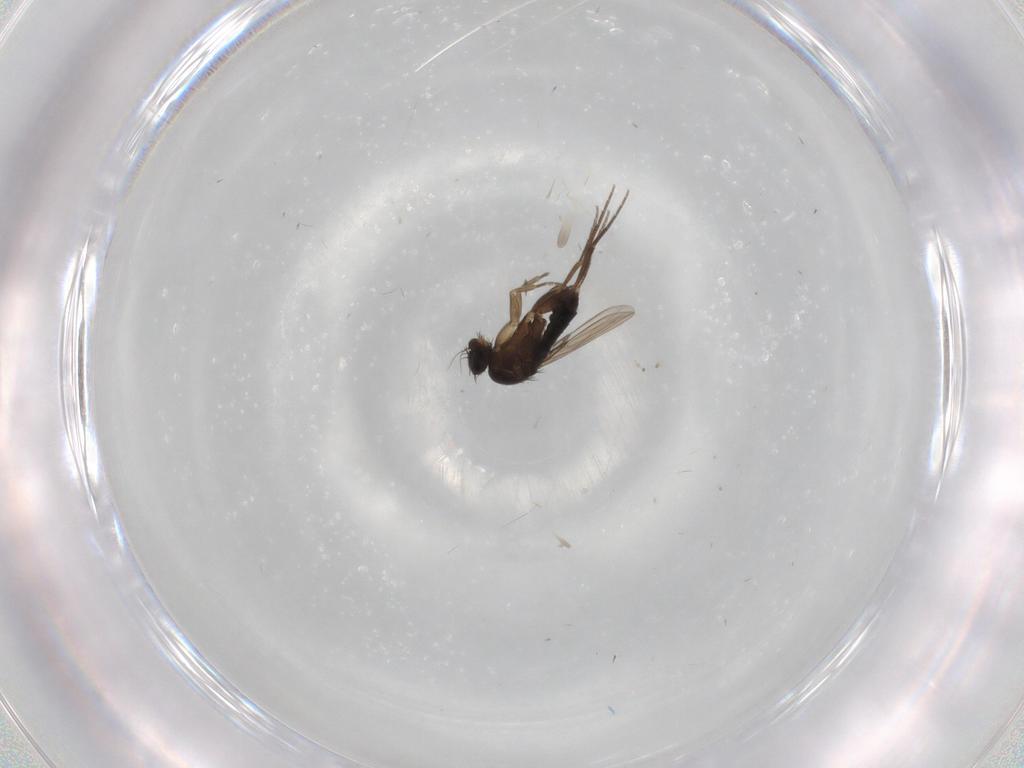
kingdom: Animalia
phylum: Arthropoda
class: Insecta
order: Diptera
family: Phoridae
